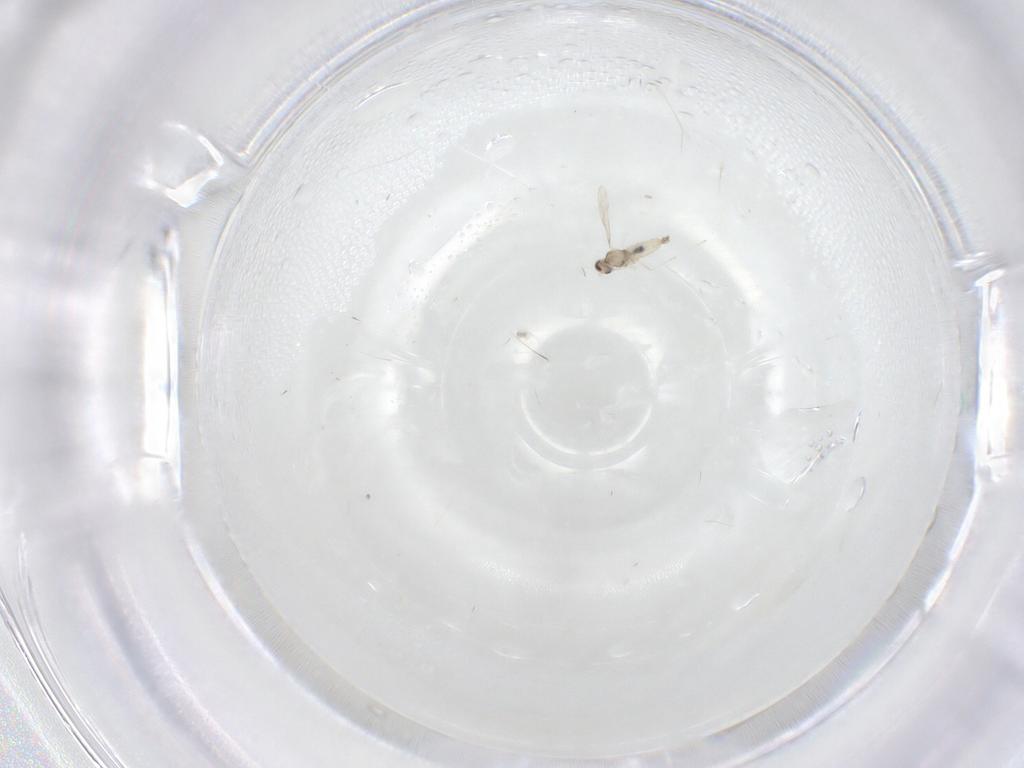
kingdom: Animalia
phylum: Arthropoda
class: Insecta
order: Diptera
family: Cecidomyiidae
